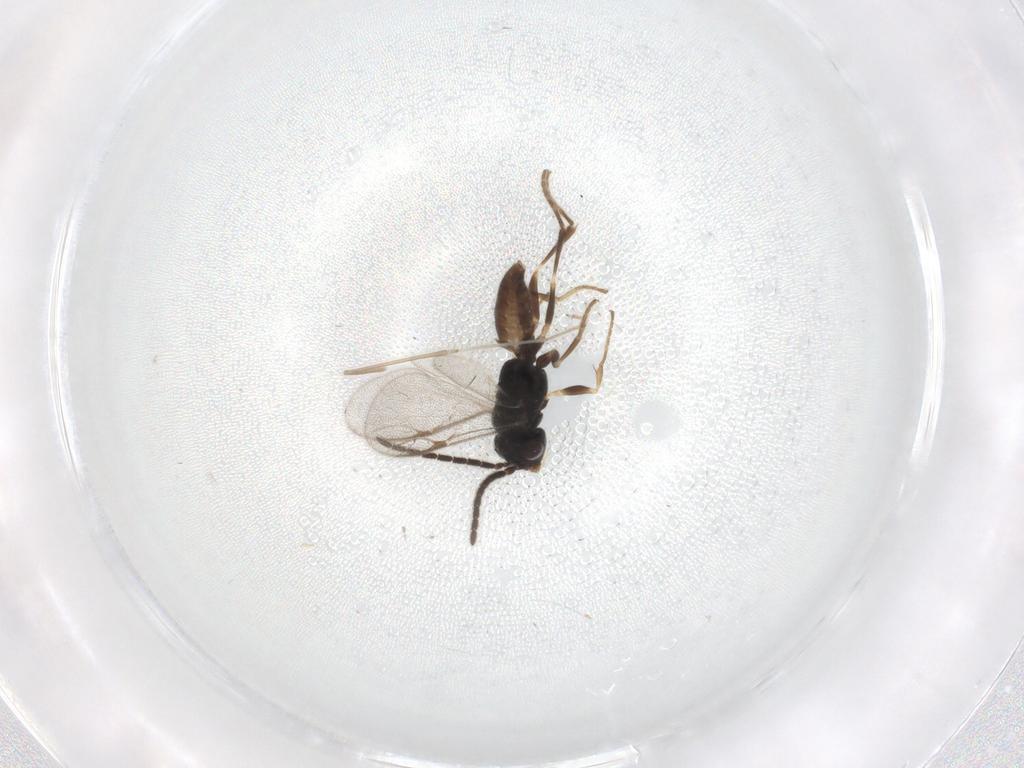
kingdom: Animalia
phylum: Arthropoda
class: Insecta
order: Hymenoptera
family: Dryinidae
